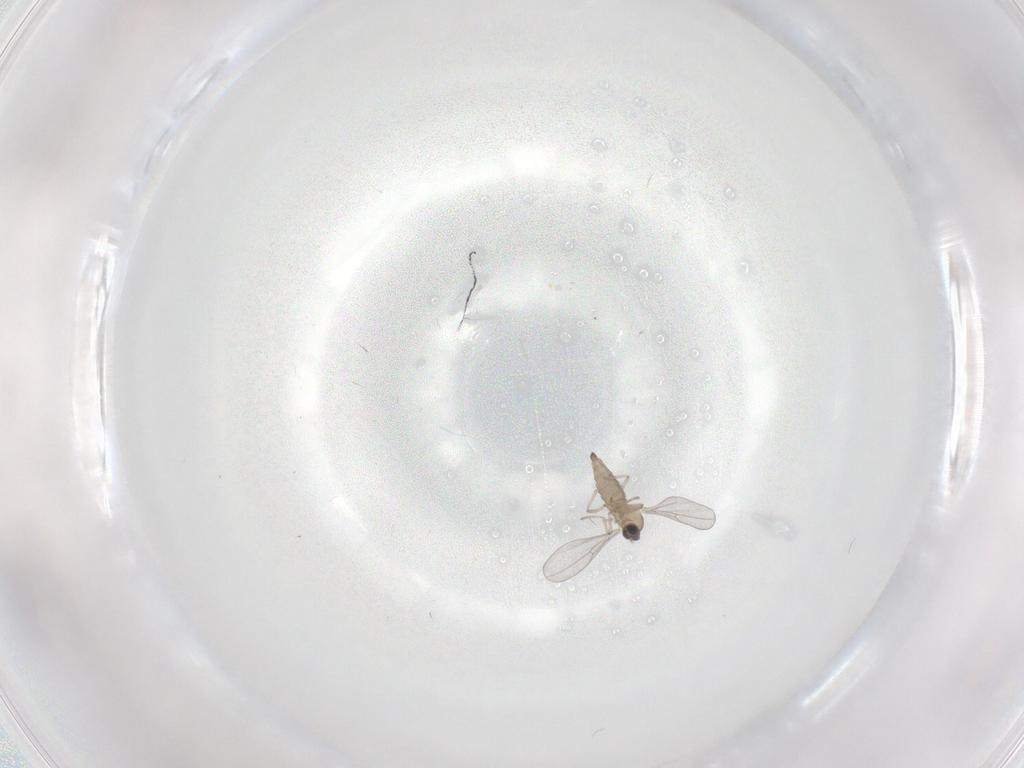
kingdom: Animalia
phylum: Arthropoda
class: Insecta
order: Diptera
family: Cecidomyiidae
